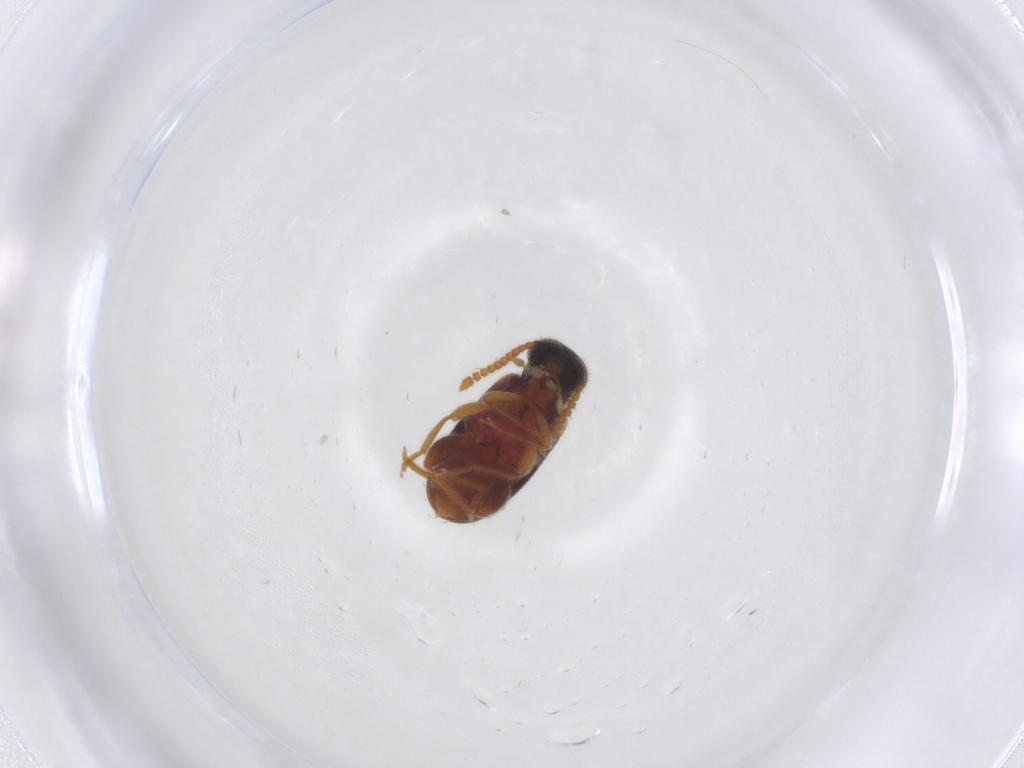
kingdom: Animalia
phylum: Arthropoda
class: Insecta
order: Coleoptera
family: Aderidae
